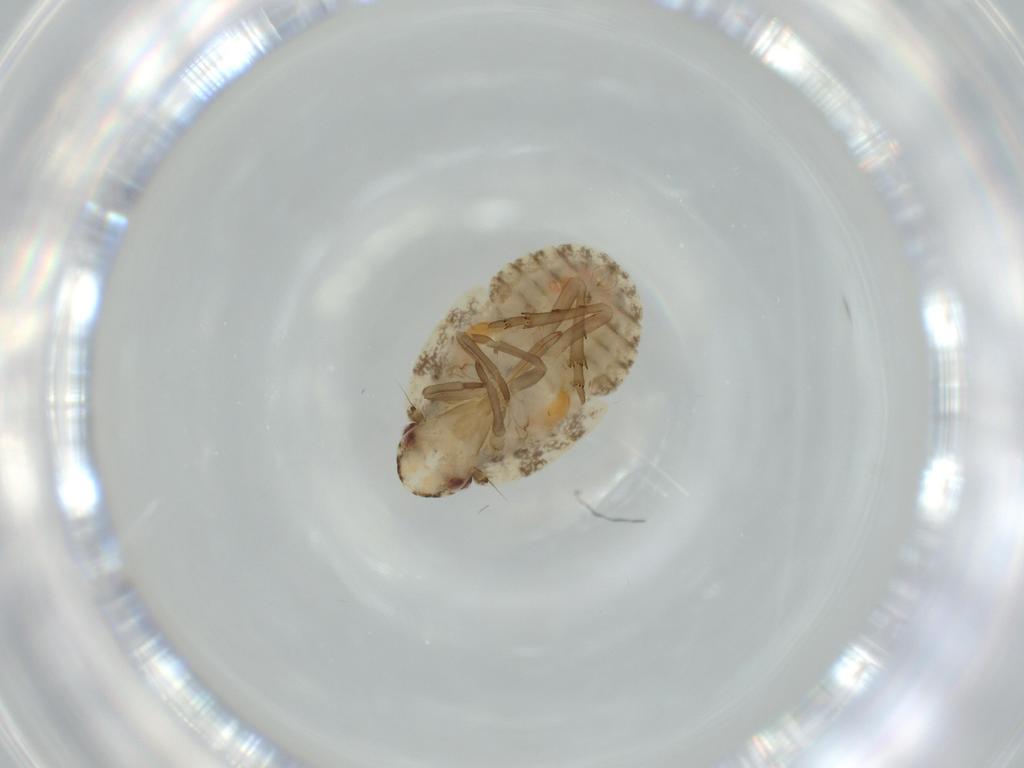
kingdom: Animalia
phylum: Arthropoda
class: Insecta
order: Hemiptera
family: Flatidae
